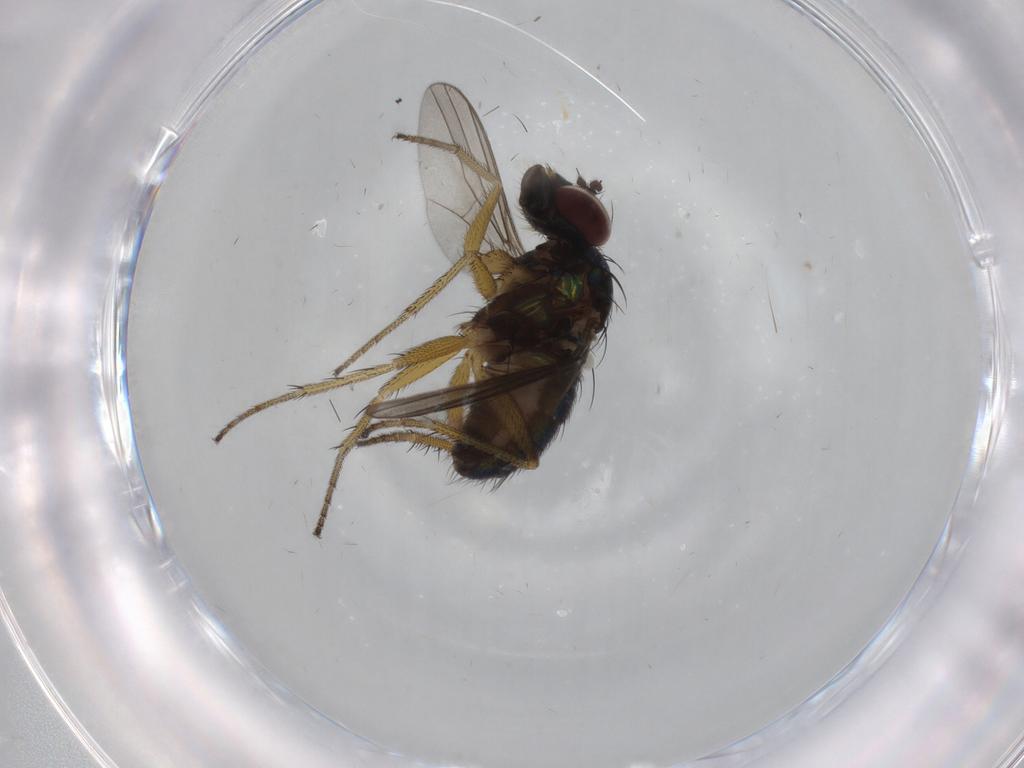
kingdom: Animalia
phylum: Arthropoda
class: Insecta
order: Diptera
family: Dolichopodidae
